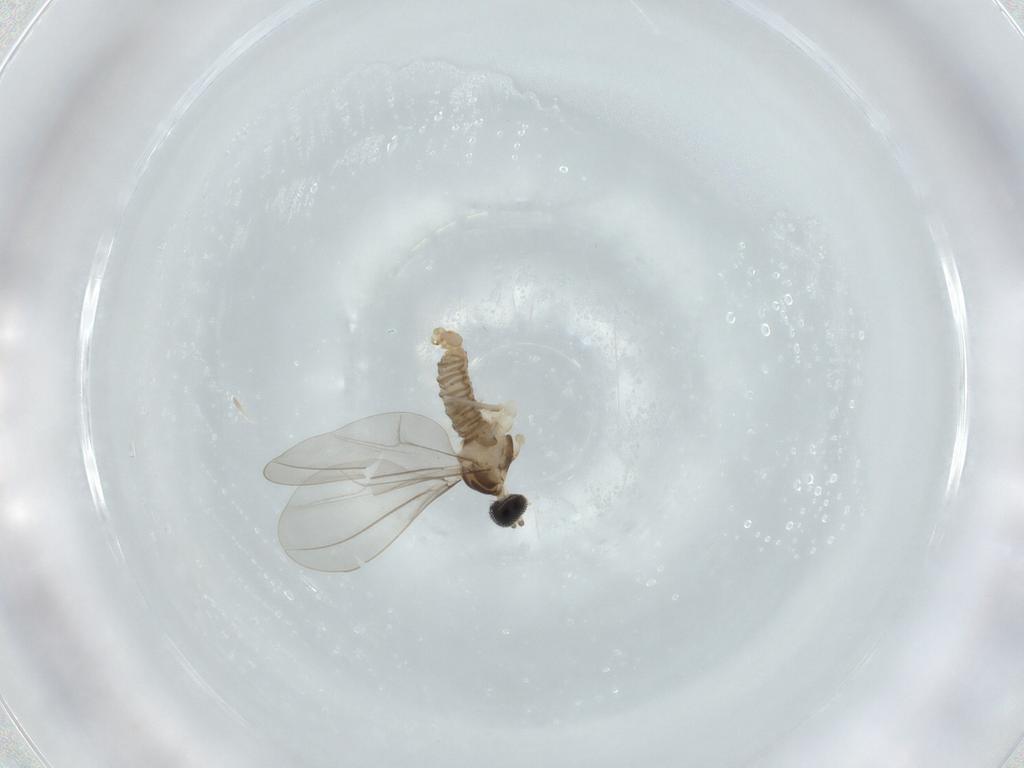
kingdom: Animalia
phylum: Arthropoda
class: Insecta
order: Diptera
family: Cecidomyiidae
